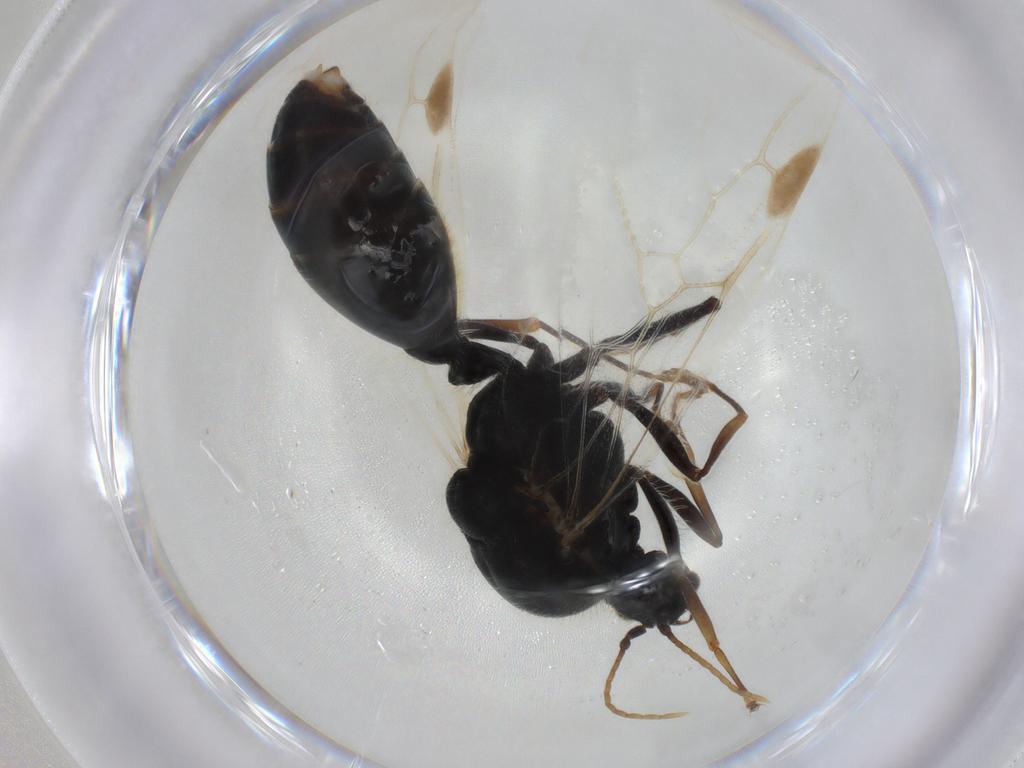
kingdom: Animalia
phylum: Arthropoda
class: Insecta
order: Hymenoptera
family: Formicidae
